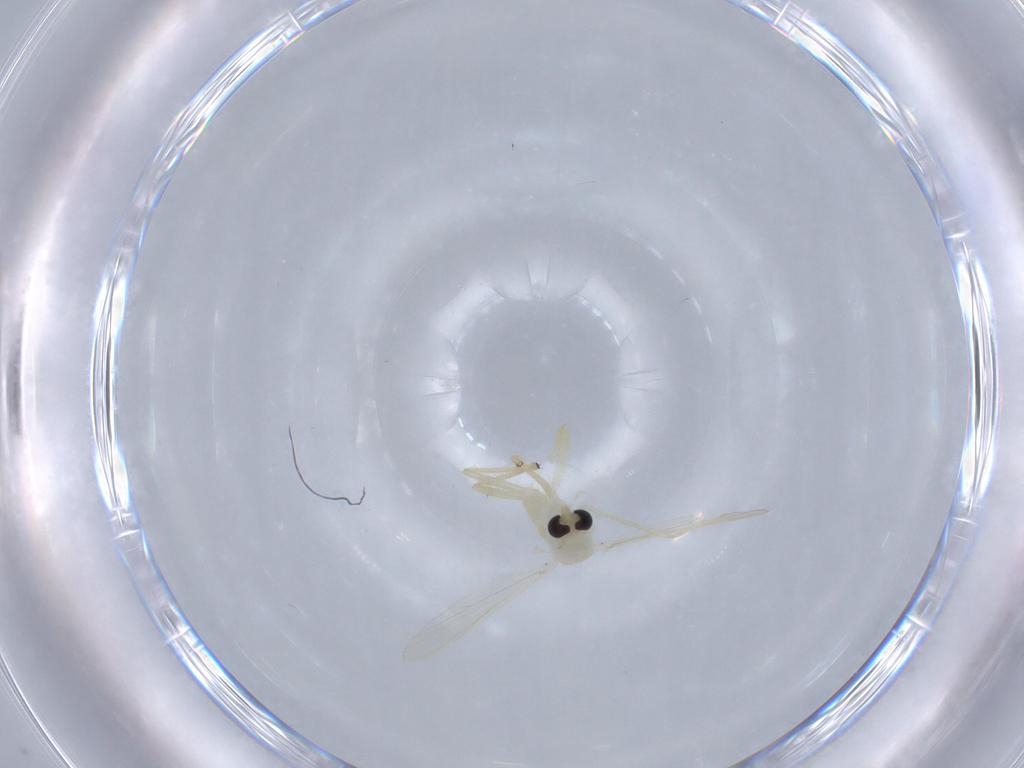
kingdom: Animalia
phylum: Arthropoda
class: Insecta
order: Diptera
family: Chironomidae
